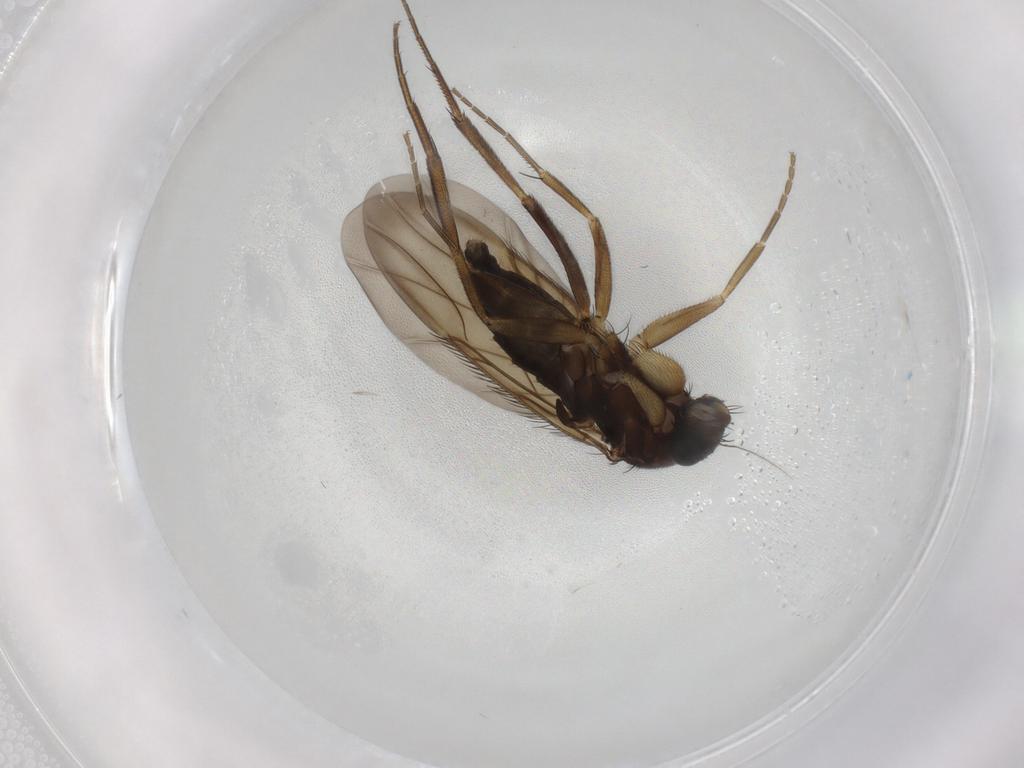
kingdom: Animalia
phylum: Arthropoda
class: Insecta
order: Diptera
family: Phoridae
